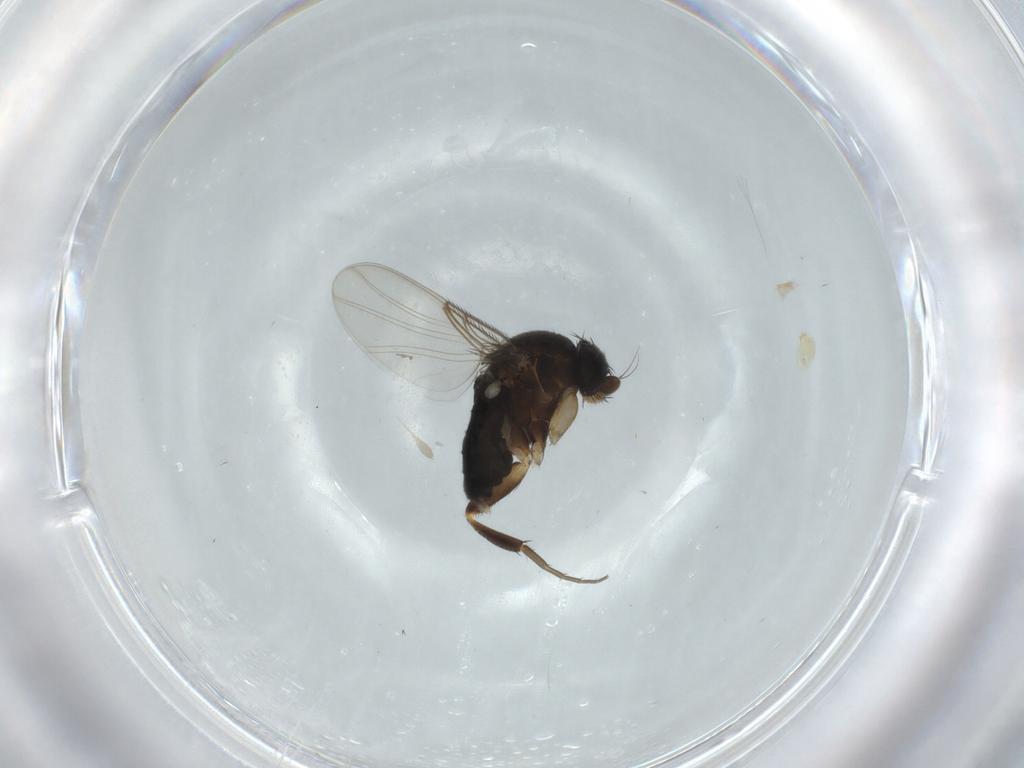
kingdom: Animalia
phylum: Arthropoda
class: Insecta
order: Diptera
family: Phoridae
